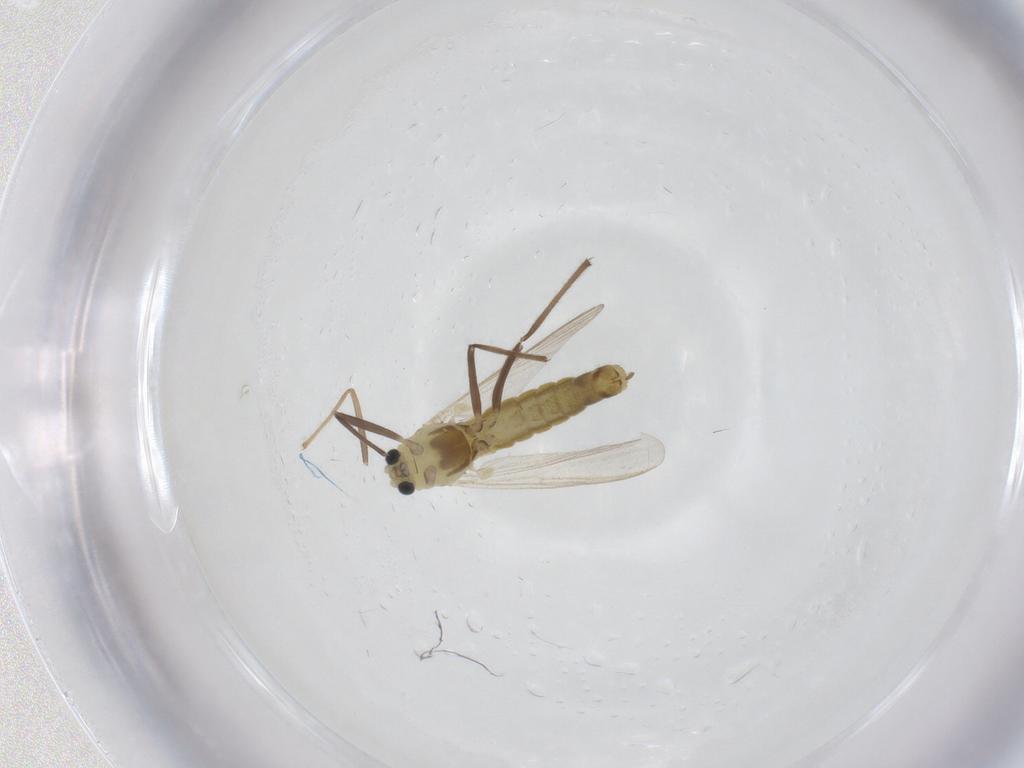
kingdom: Animalia
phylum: Arthropoda
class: Insecta
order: Diptera
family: Chironomidae
